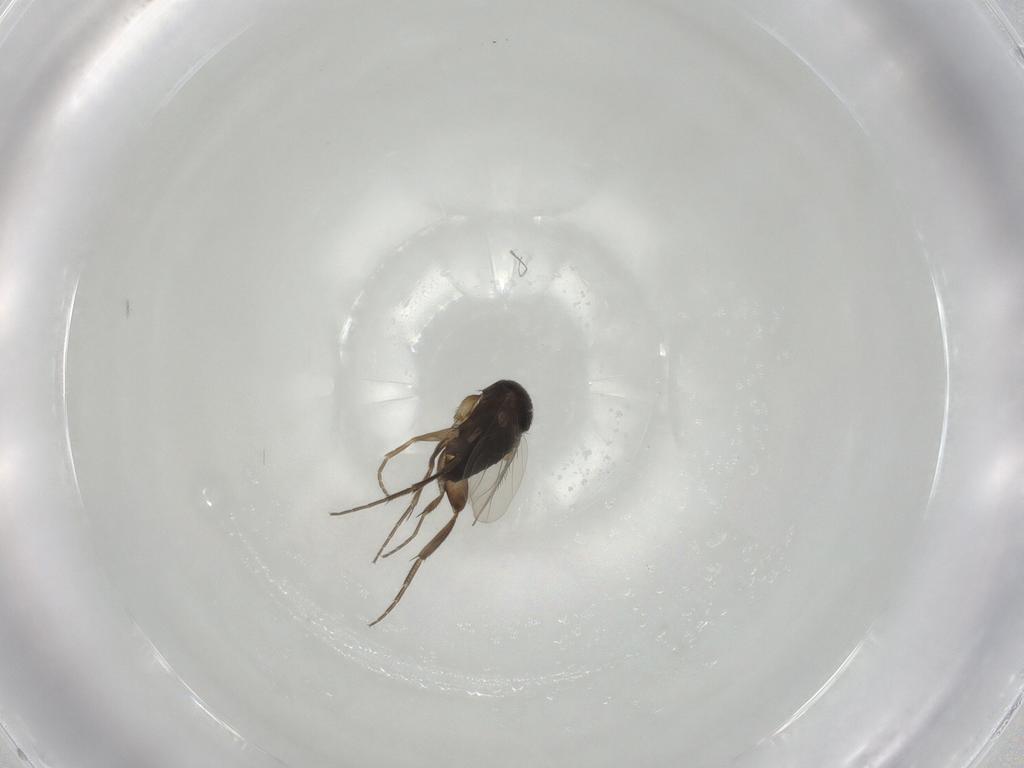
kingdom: Animalia
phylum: Arthropoda
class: Insecta
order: Diptera
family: Phoridae
